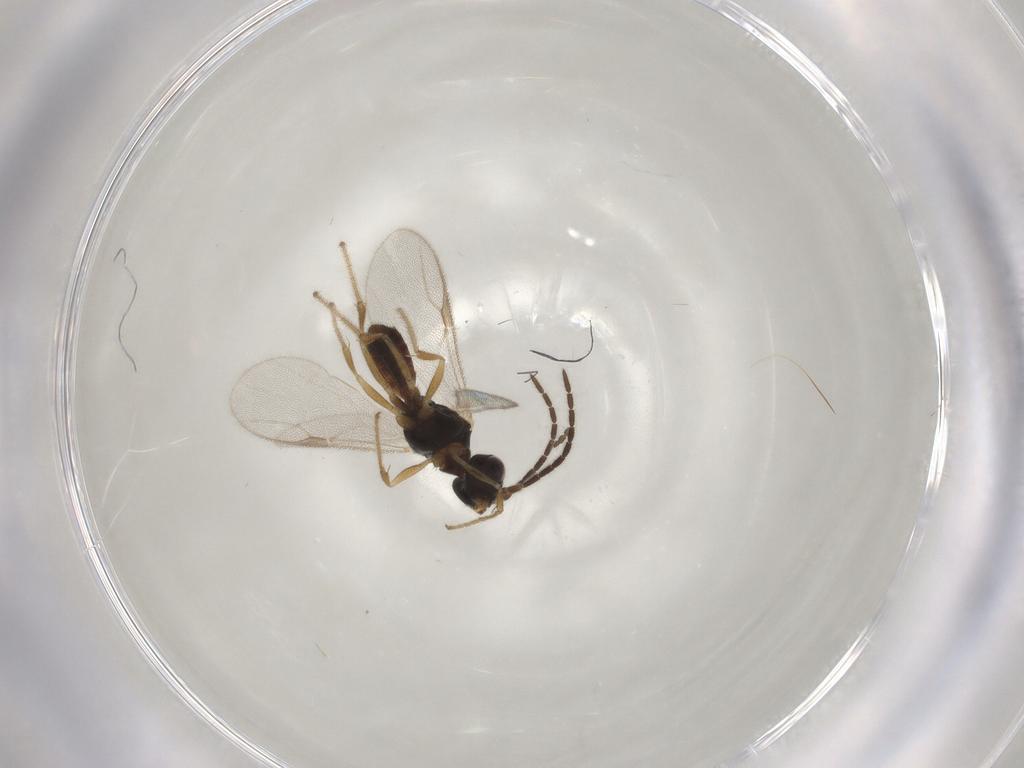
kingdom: Animalia
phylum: Arthropoda
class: Insecta
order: Hymenoptera
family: Dryinidae
